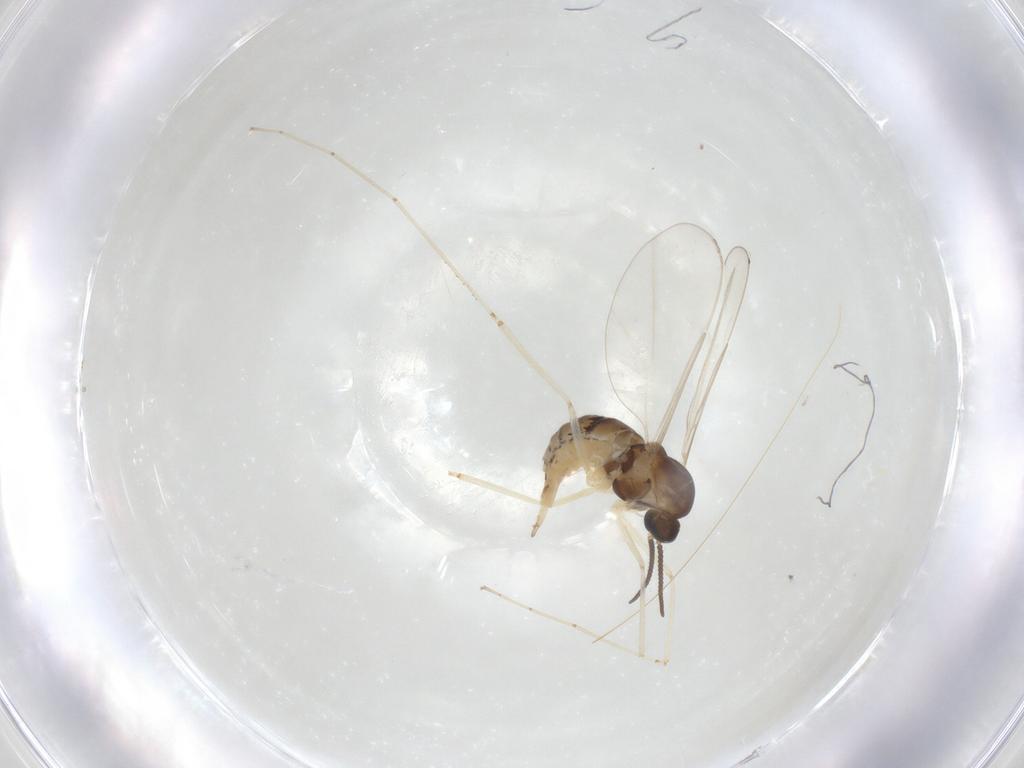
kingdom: Animalia
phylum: Arthropoda
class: Insecta
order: Diptera
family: Cecidomyiidae
